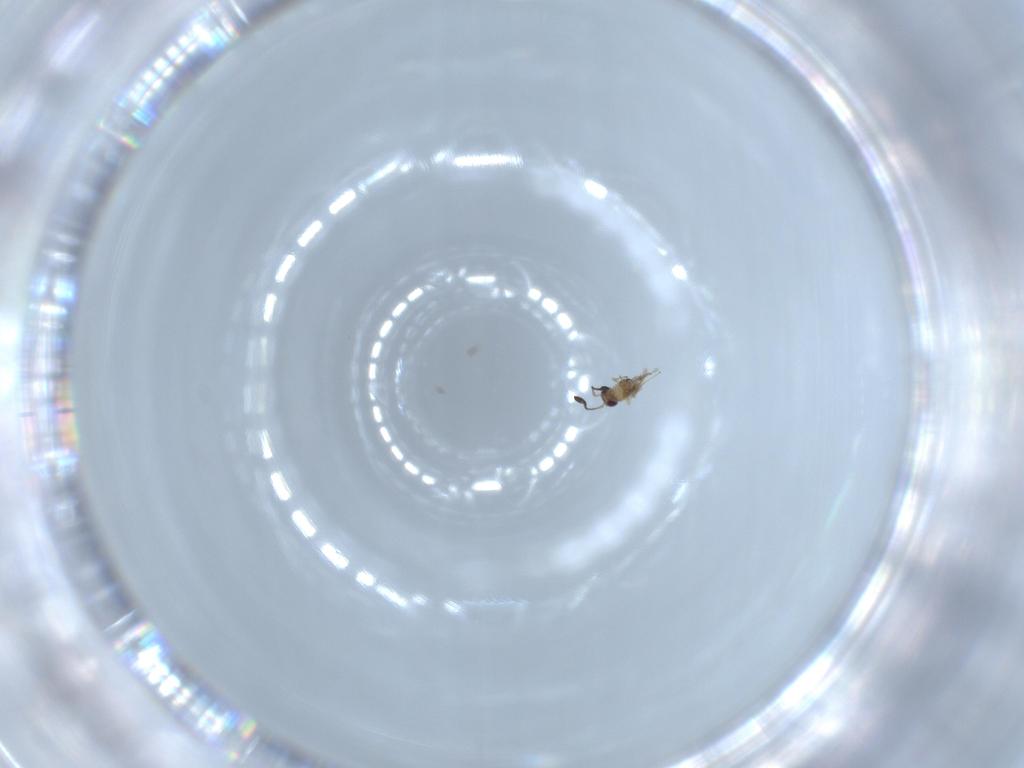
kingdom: Animalia
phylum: Arthropoda
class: Insecta
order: Hymenoptera
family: Mymaridae
